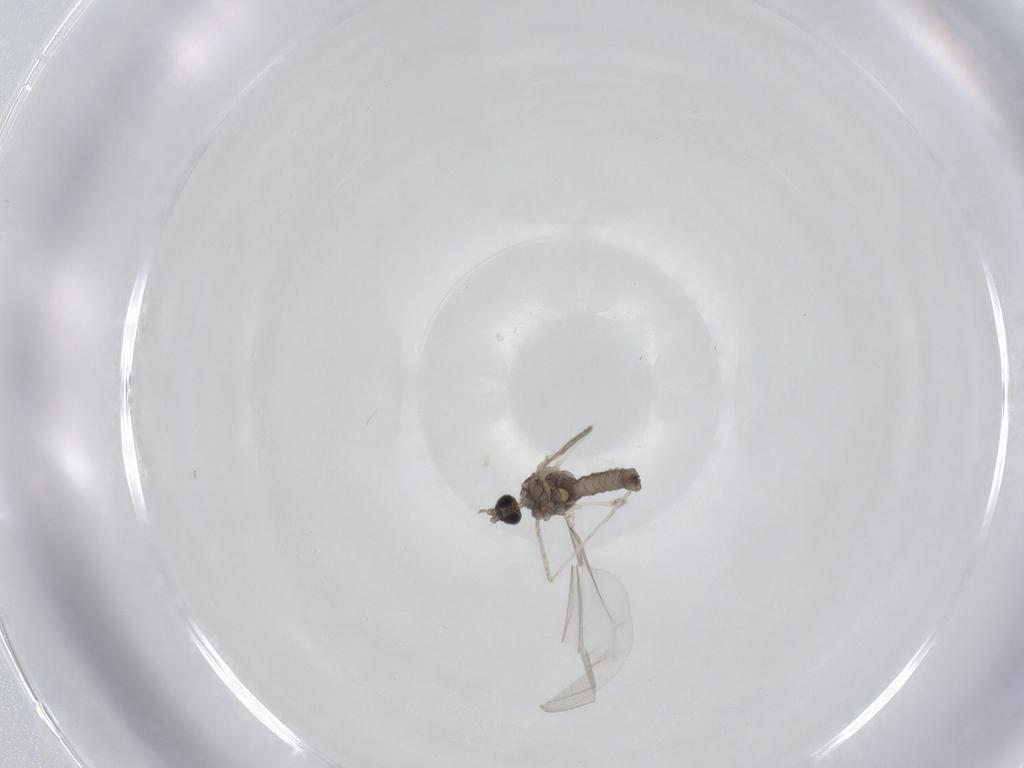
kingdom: Animalia
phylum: Arthropoda
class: Insecta
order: Diptera
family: Cecidomyiidae
